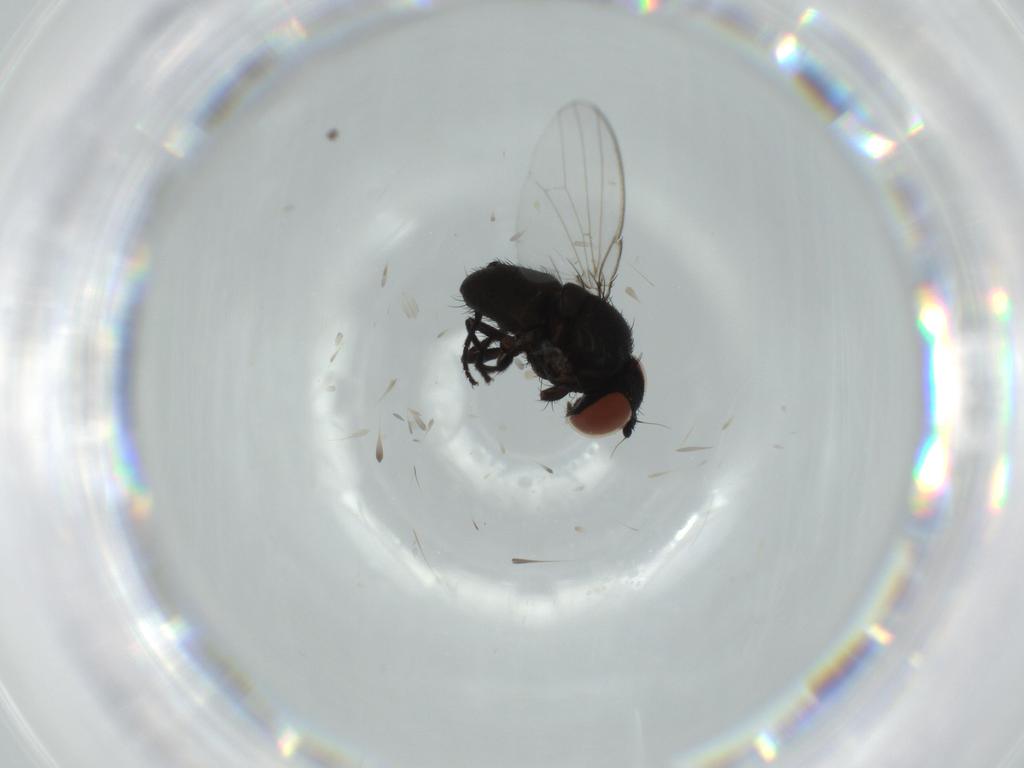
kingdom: Animalia
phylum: Arthropoda
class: Insecta
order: Diptera
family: Milichiidae
